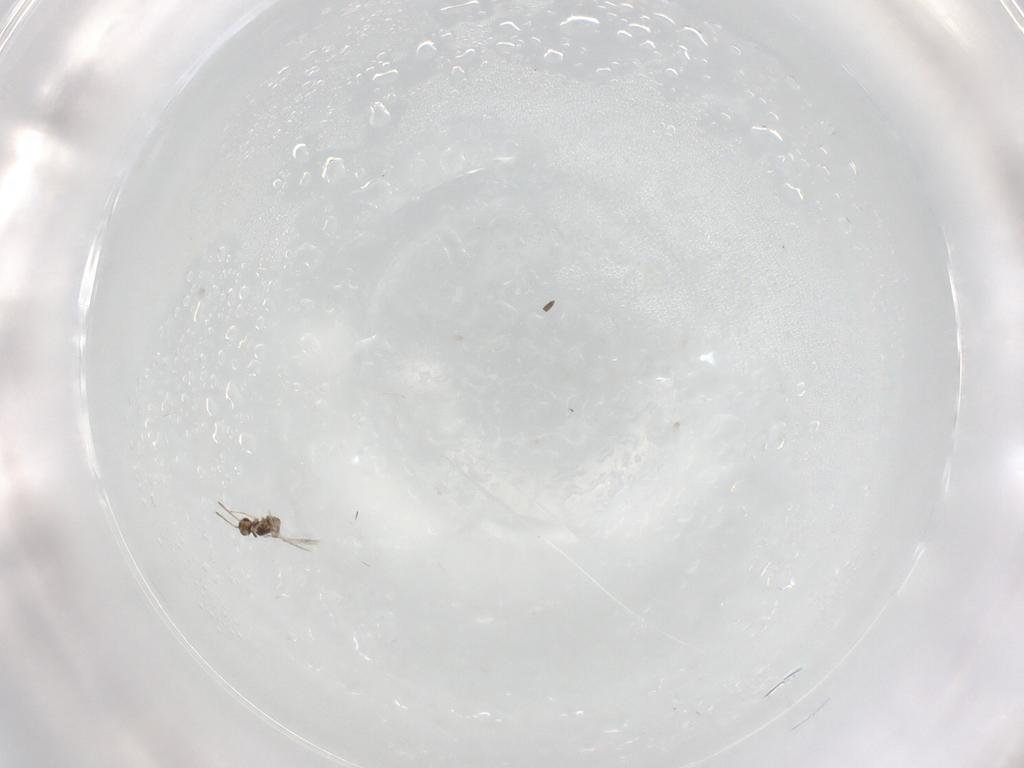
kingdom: Animalia
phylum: Arthropoda
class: Insecta
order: Hymenoptera
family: Mymaridae
